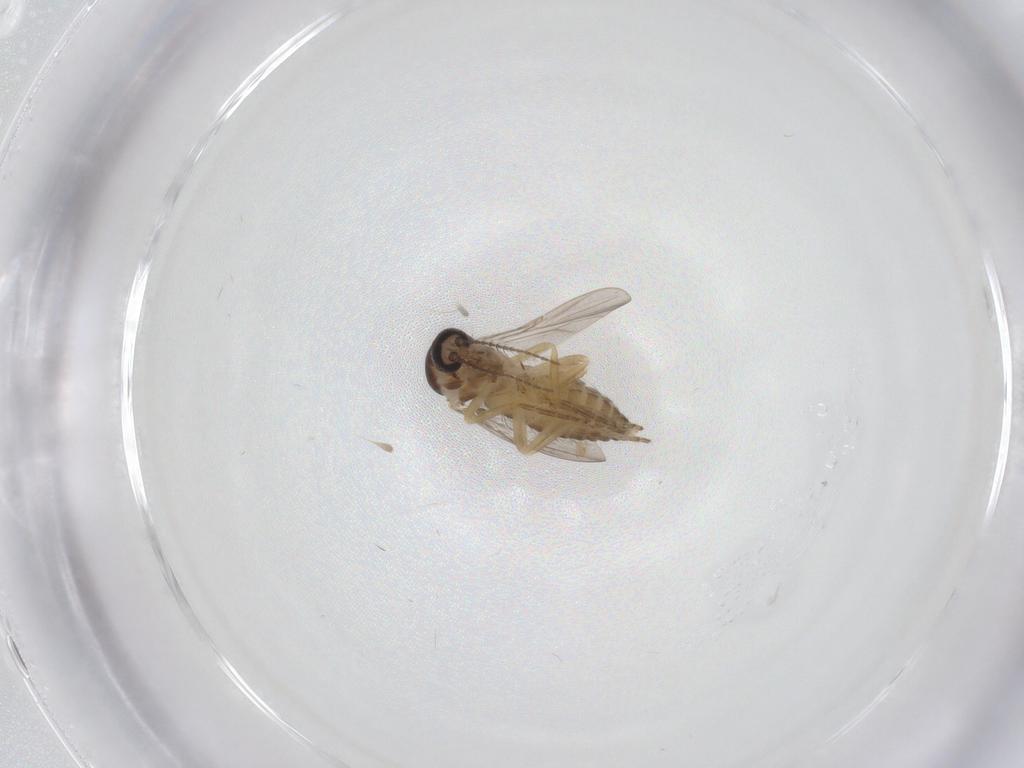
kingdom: Animalia
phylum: Arthropoda
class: Insecta
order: Diptera
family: Ceratopogonidae
